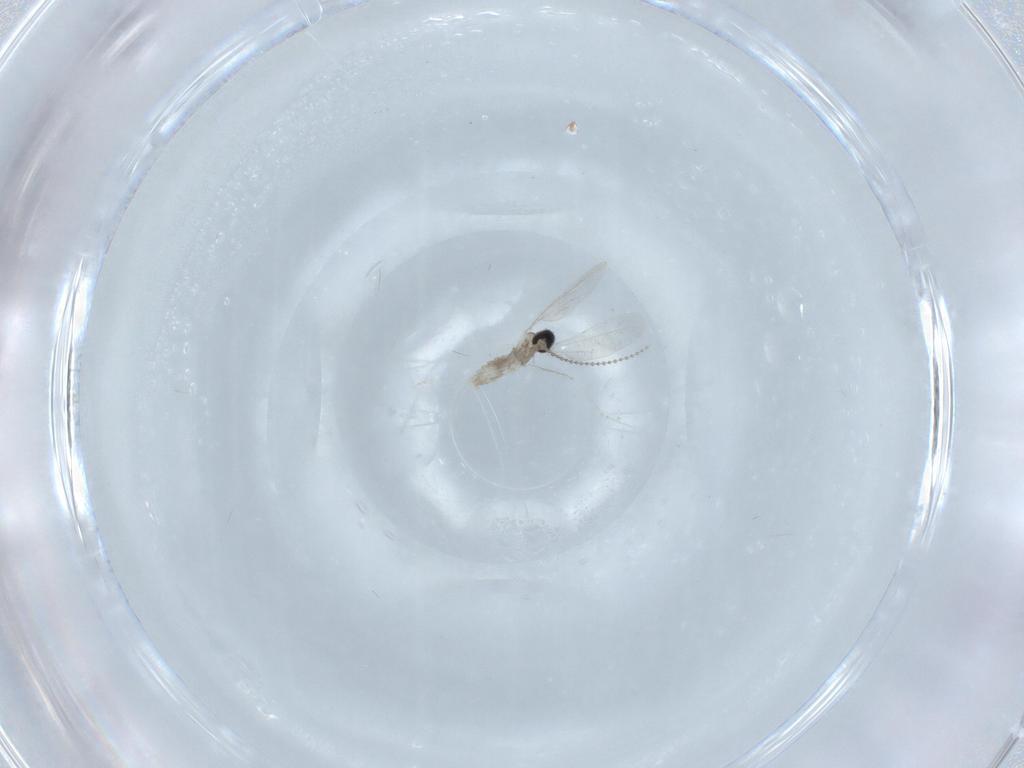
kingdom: Animalia
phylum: Arthropoda
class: Insecta
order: Diptera
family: Cecidomyiidae
